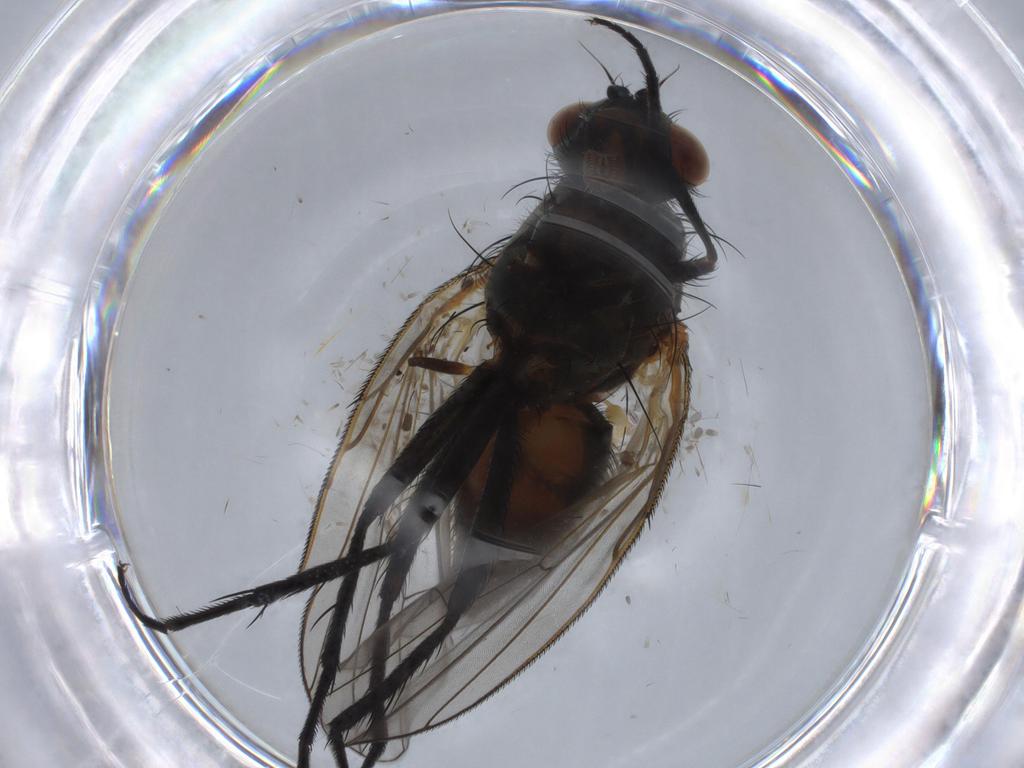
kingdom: Animalia
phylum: Arthropoda
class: Insecta
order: Diptera
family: Anthomyiidae
